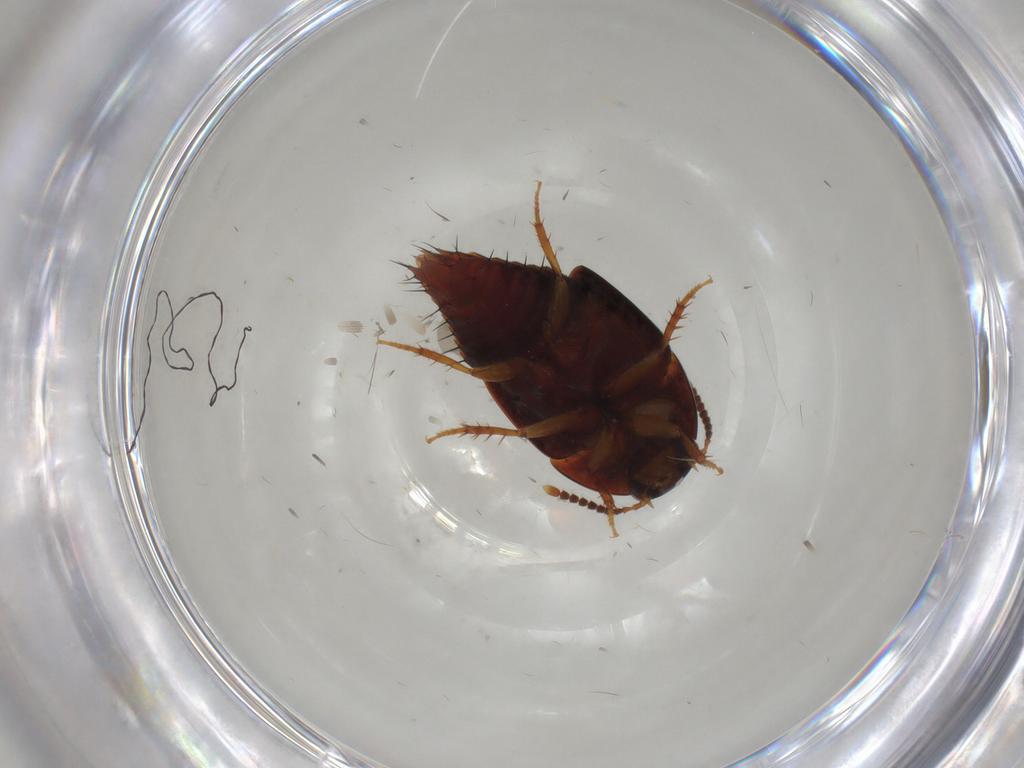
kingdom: Animalia
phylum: Arthropoda
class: Insecta
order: Coleoptera
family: Staphylinidae
